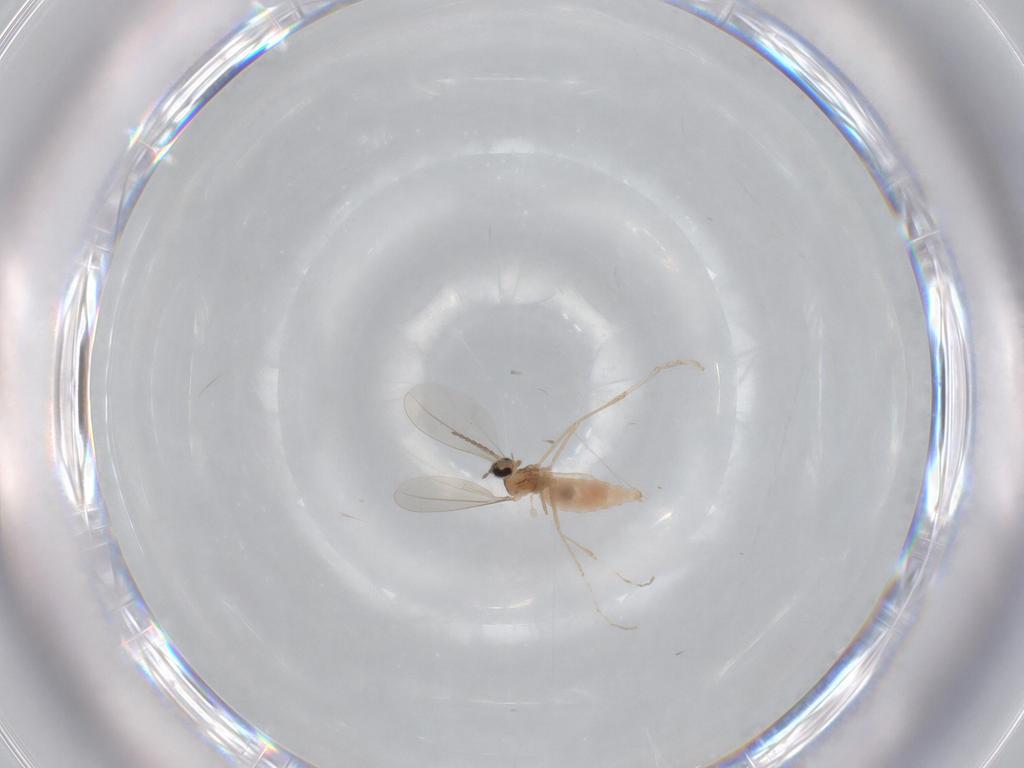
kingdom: Animalia
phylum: Arthropoda
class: Insecta
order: Diptera
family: Cecidomyiidae
